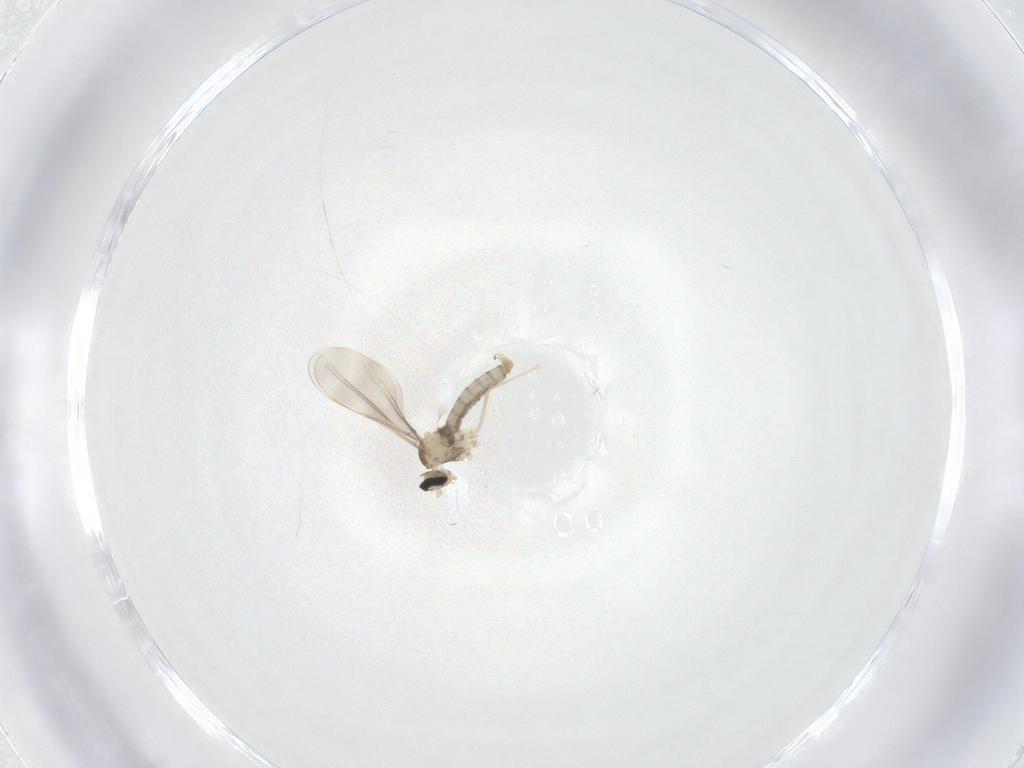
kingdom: Animalia
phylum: Arthropoda
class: Insecta
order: Diptera
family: Cecidomyiidae
